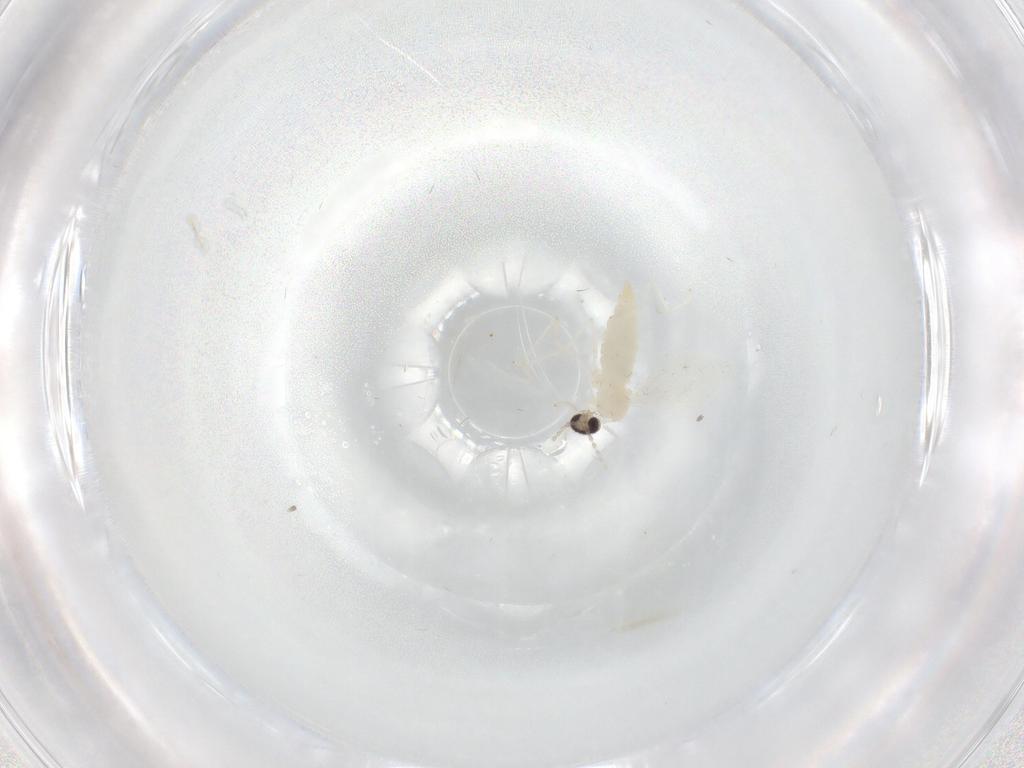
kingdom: Animalia
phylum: Arthropoda
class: Insecta
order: Diptera
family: Cecidomyiidae
